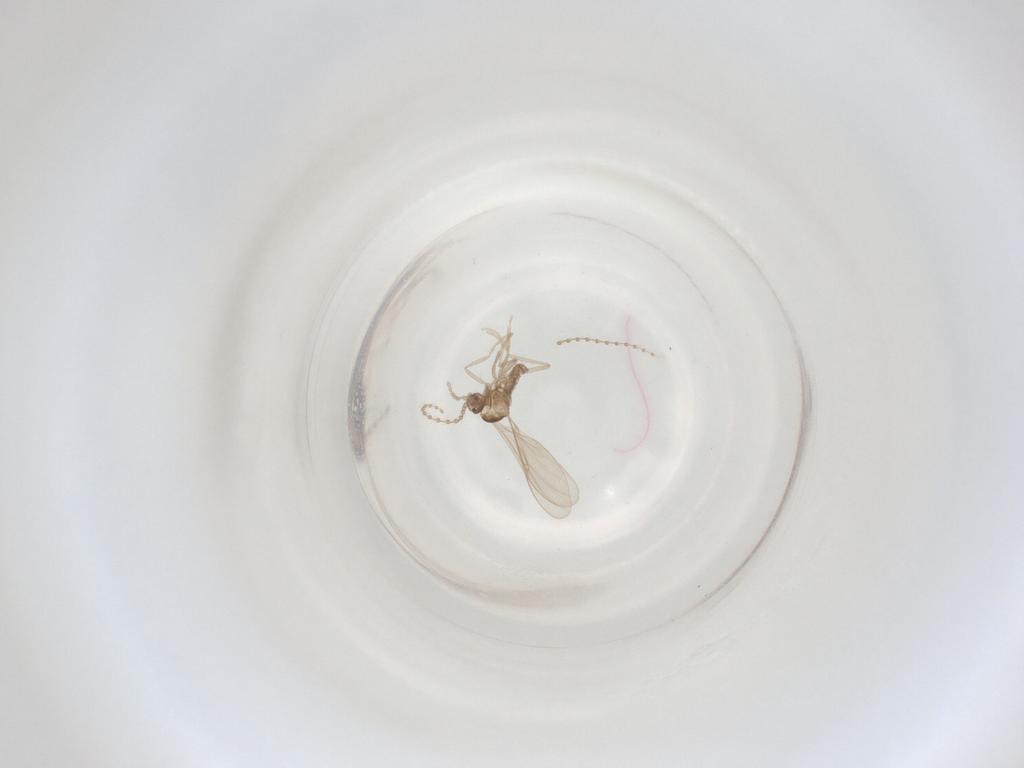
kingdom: Animalia
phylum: Arthropoda
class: Insecta
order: Diptera
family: Cecidomyiidae
